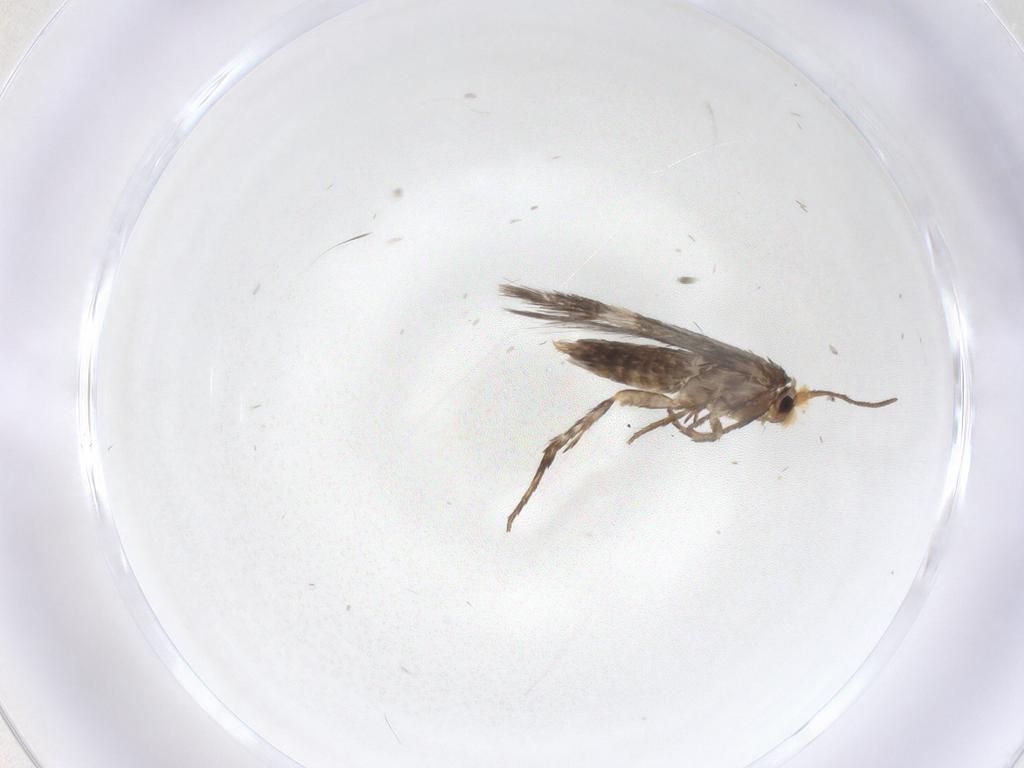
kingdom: Animalia
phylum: Arthropoda
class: Insecta
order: Lepidoptera
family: Nepticulidae
